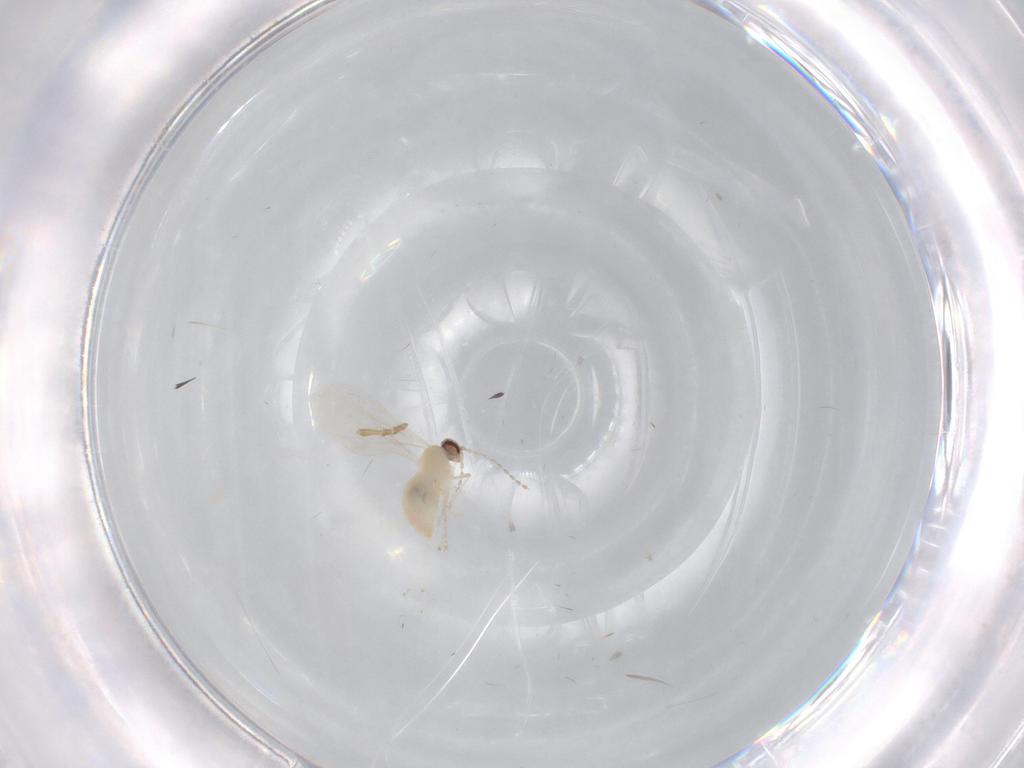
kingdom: Animalia
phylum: Arthropoda
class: Insecta
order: Diptera
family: Cecidomyiidae
